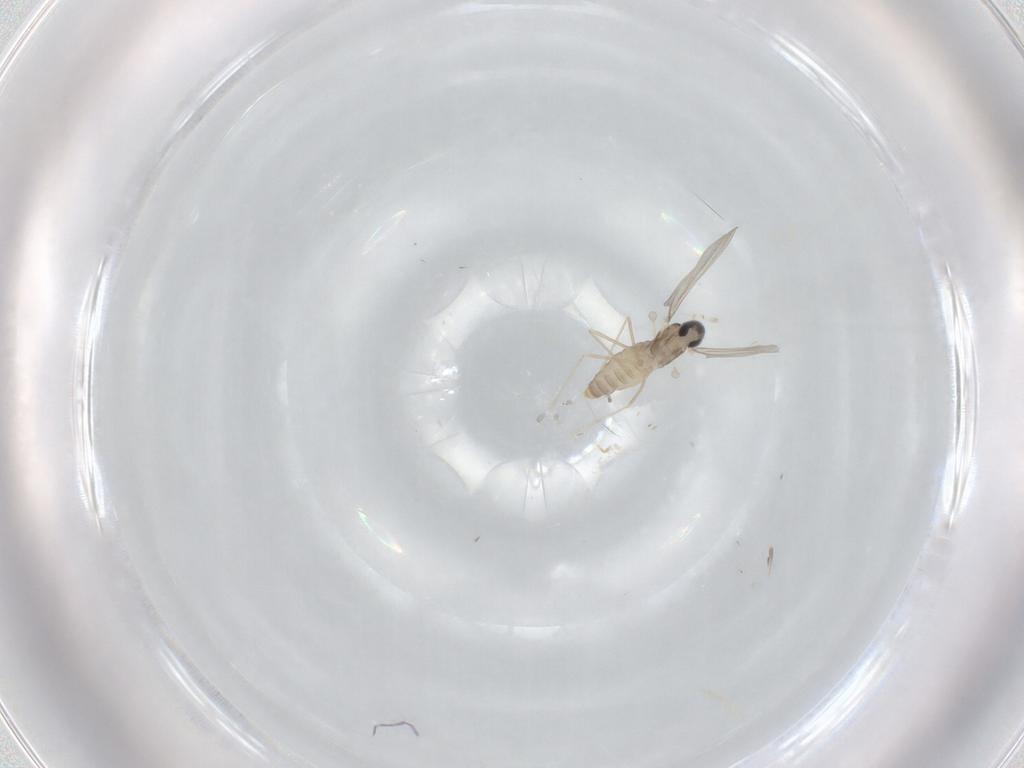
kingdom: Animalia
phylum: Arthropoda
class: Insecta
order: Diptera
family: Cecidomyiidae
